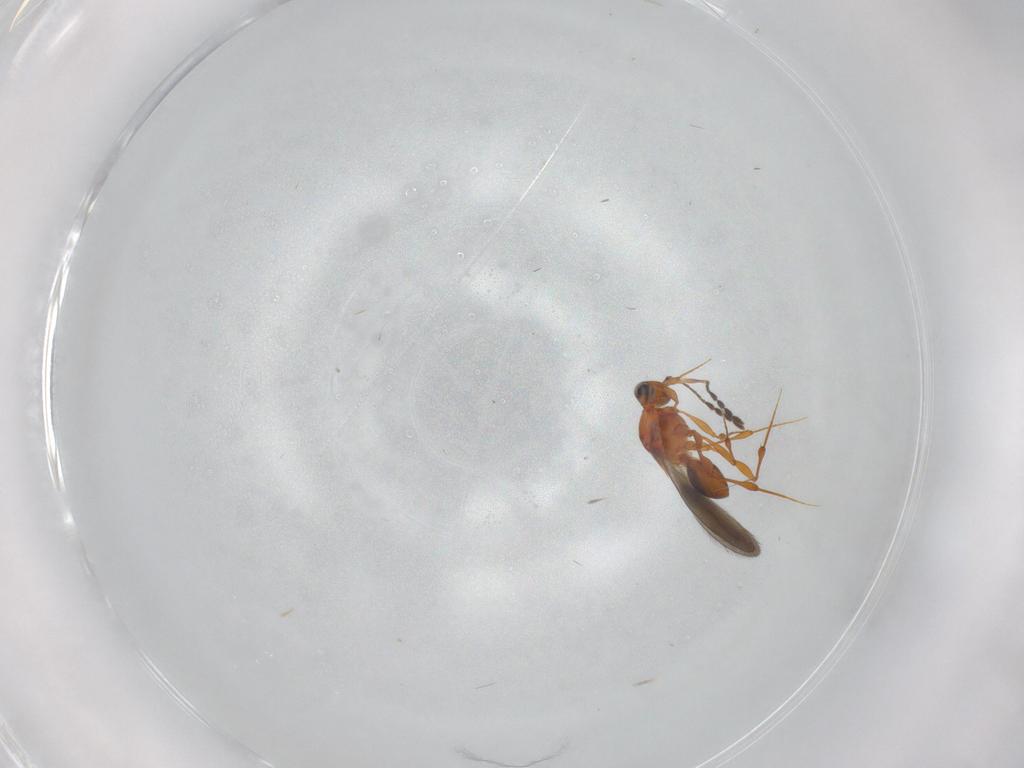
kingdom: Animalia
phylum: Arthropoda
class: Insecta
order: Hymenoptera
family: Platygastridae
